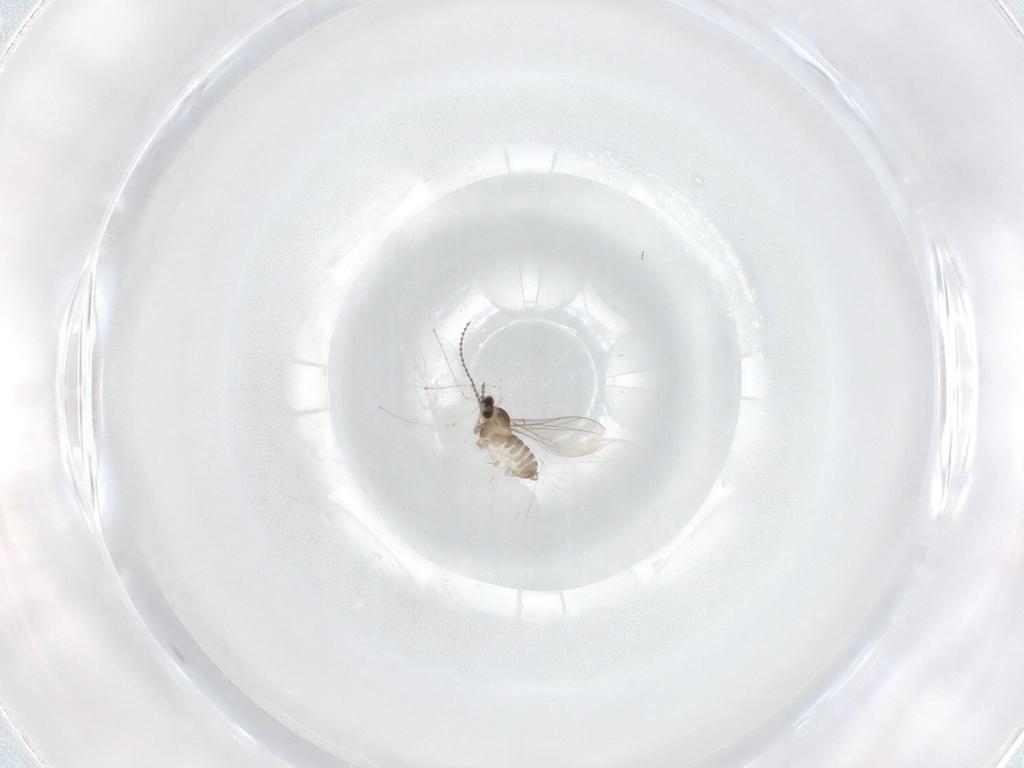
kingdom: Animalia
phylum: Arthropoda
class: Insecta
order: Diptera
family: Cecidomyiidae
